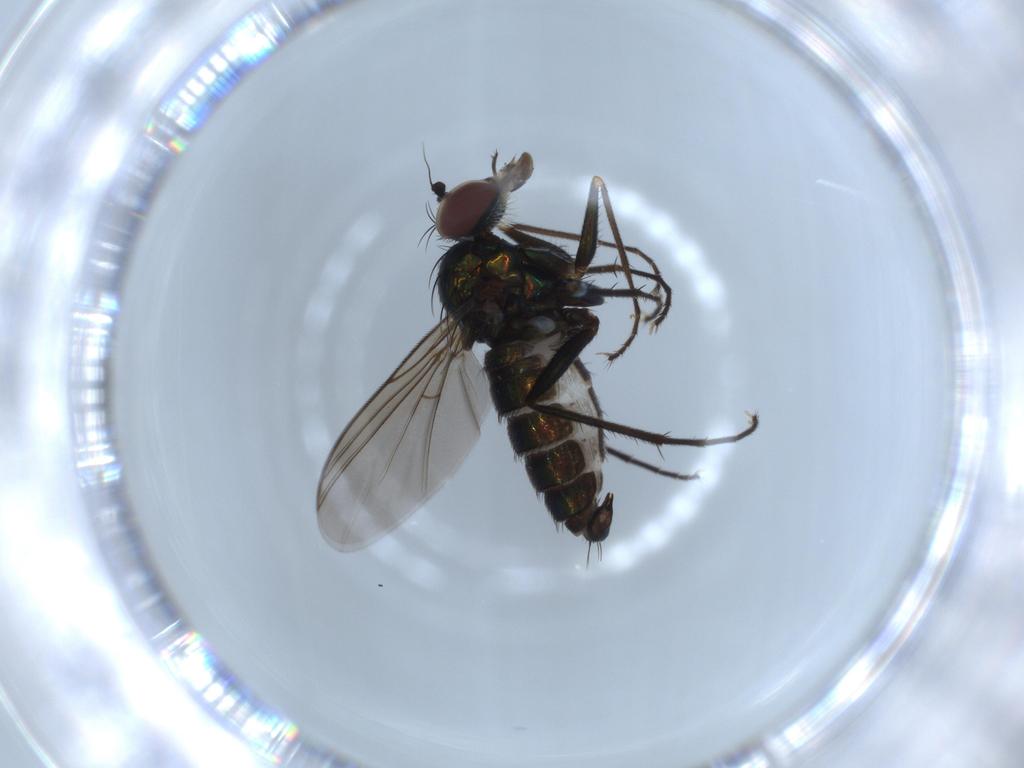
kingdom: Animalia
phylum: Arthropoda
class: Insecta
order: Diptera
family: Dolichopodidae
